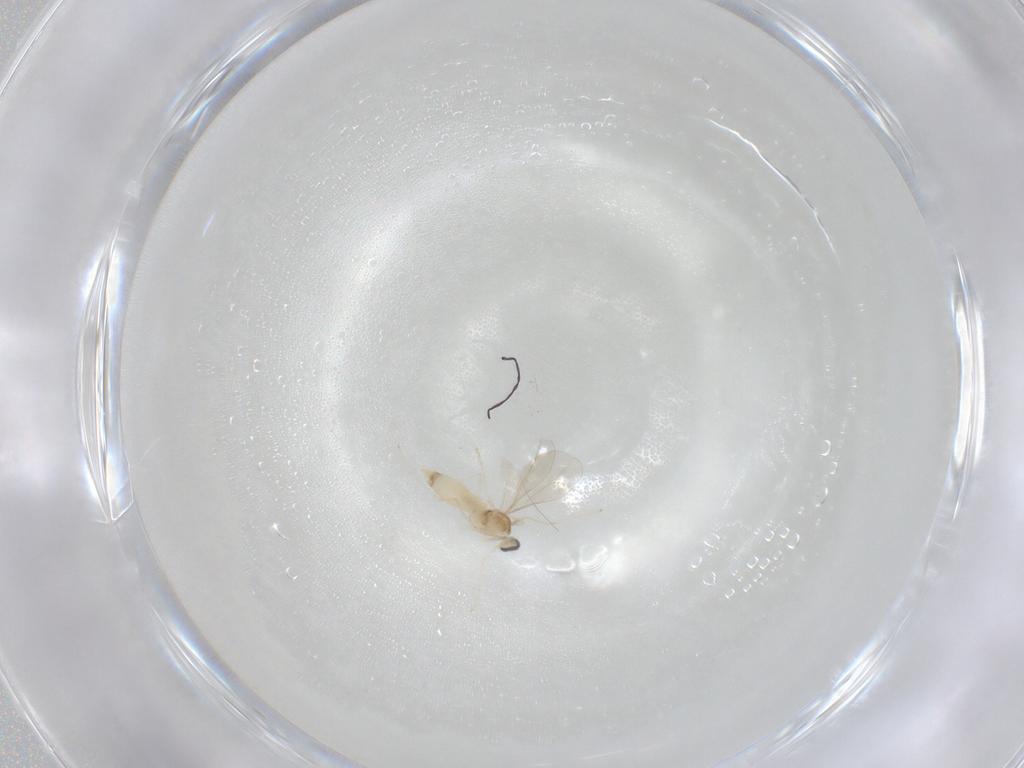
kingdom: Animalia
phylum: Arthropoda
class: Insecta
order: Diptera
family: Cecidomyiidae
